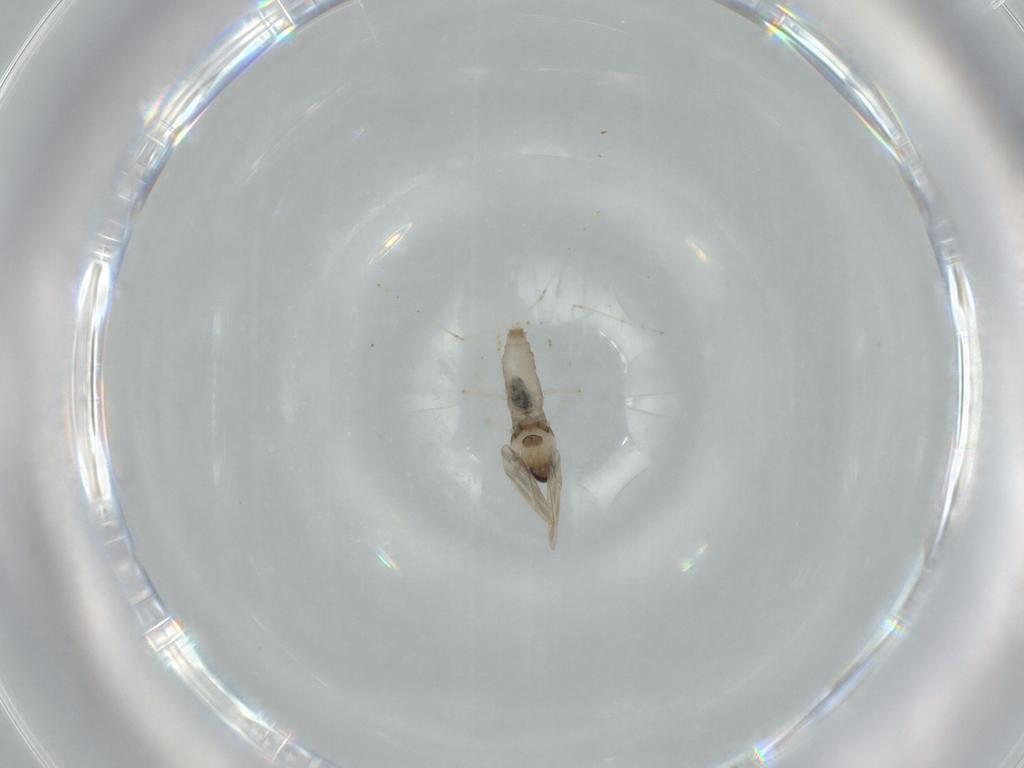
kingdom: Animalia
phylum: Arthropoda
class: Insecta
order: Diptera
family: Cecidomyiidae
